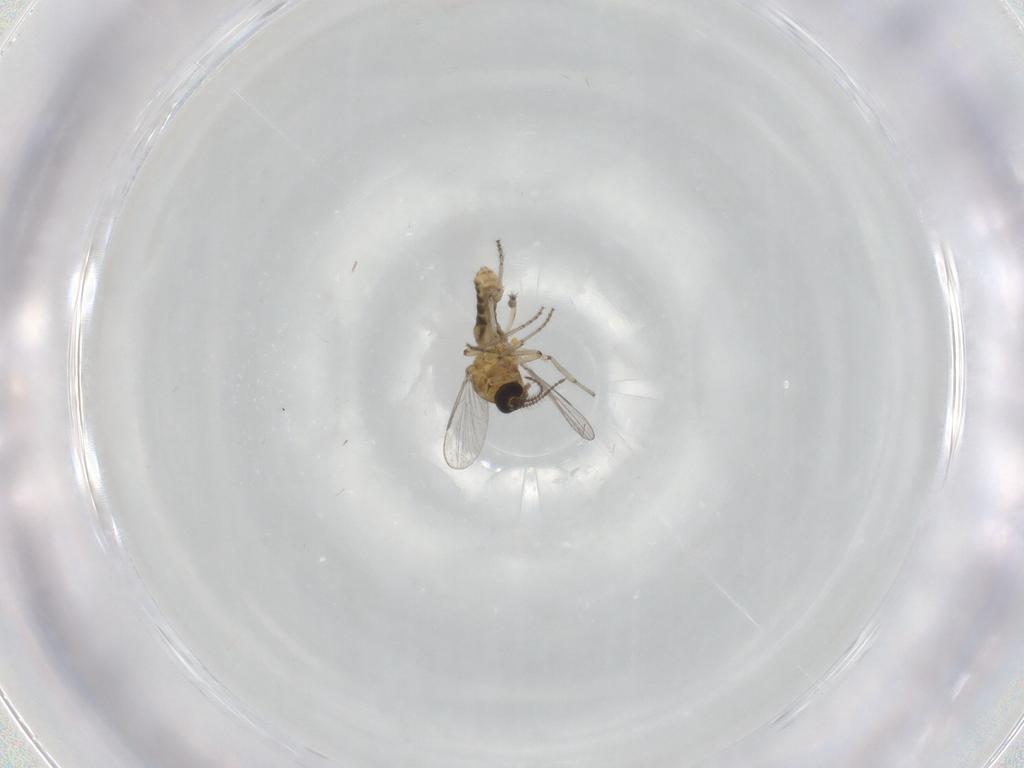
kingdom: Animalia
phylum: Arthropoda
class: Insecta
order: Diptera
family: Ceratopogonidae
